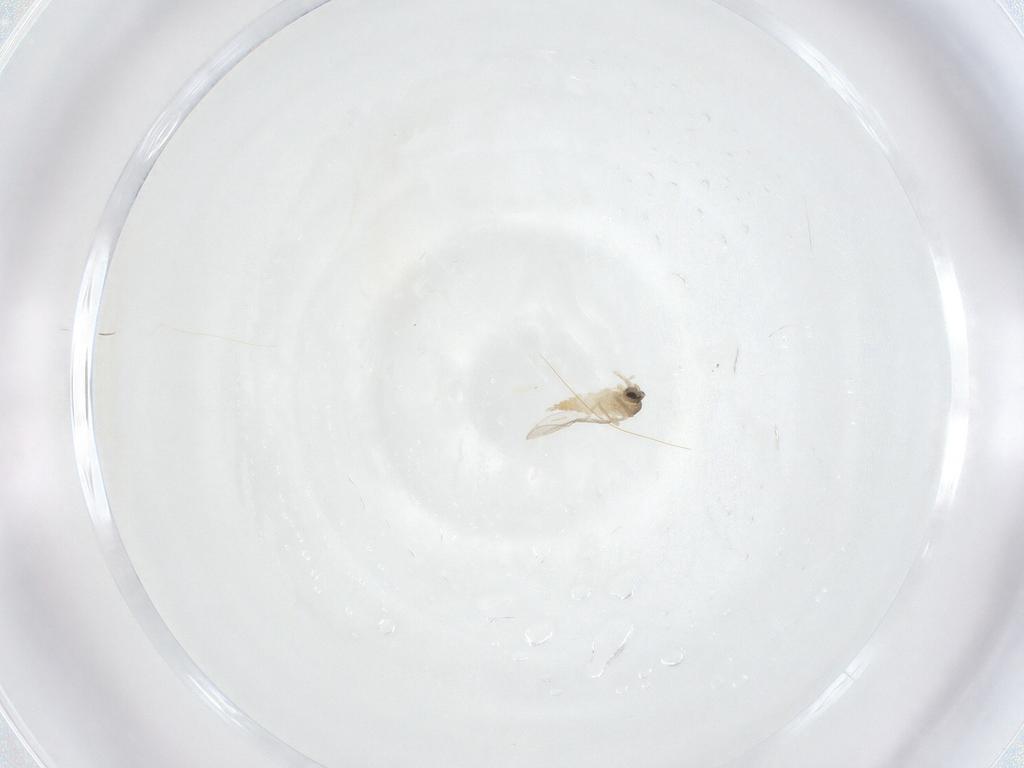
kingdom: Animalia
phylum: Arthropoda
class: Insecta
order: Diptera
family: Cecidomyiidae
